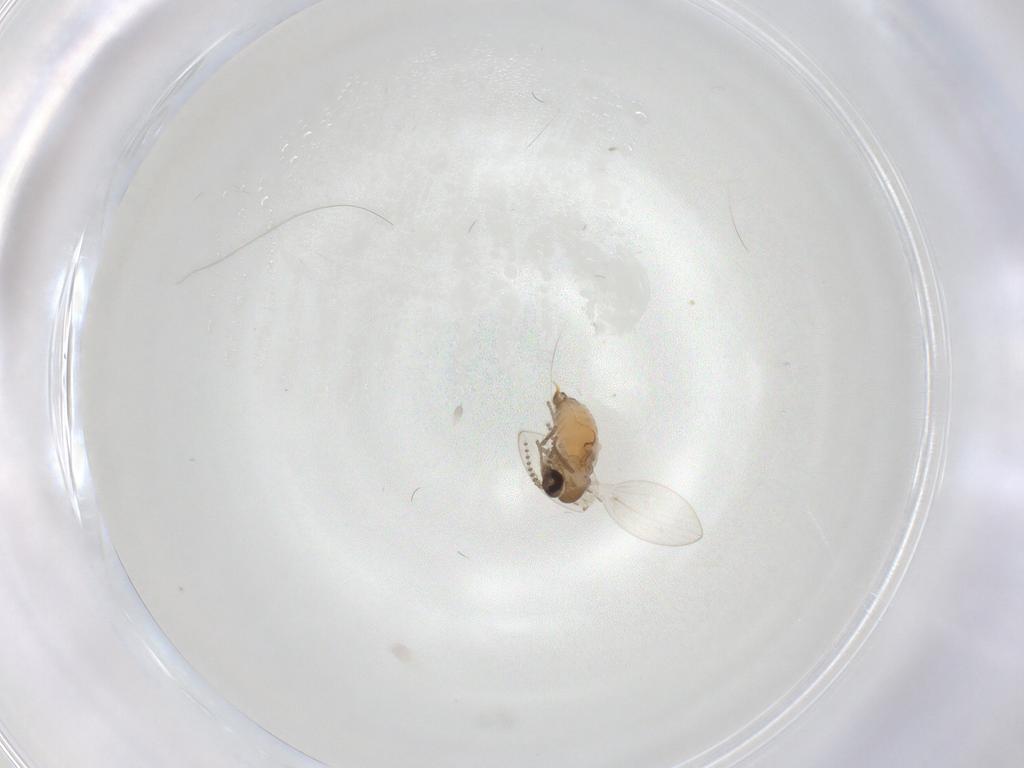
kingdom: Animalia
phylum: Arthropoda
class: Insecta
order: Diptera
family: Psychodidae
